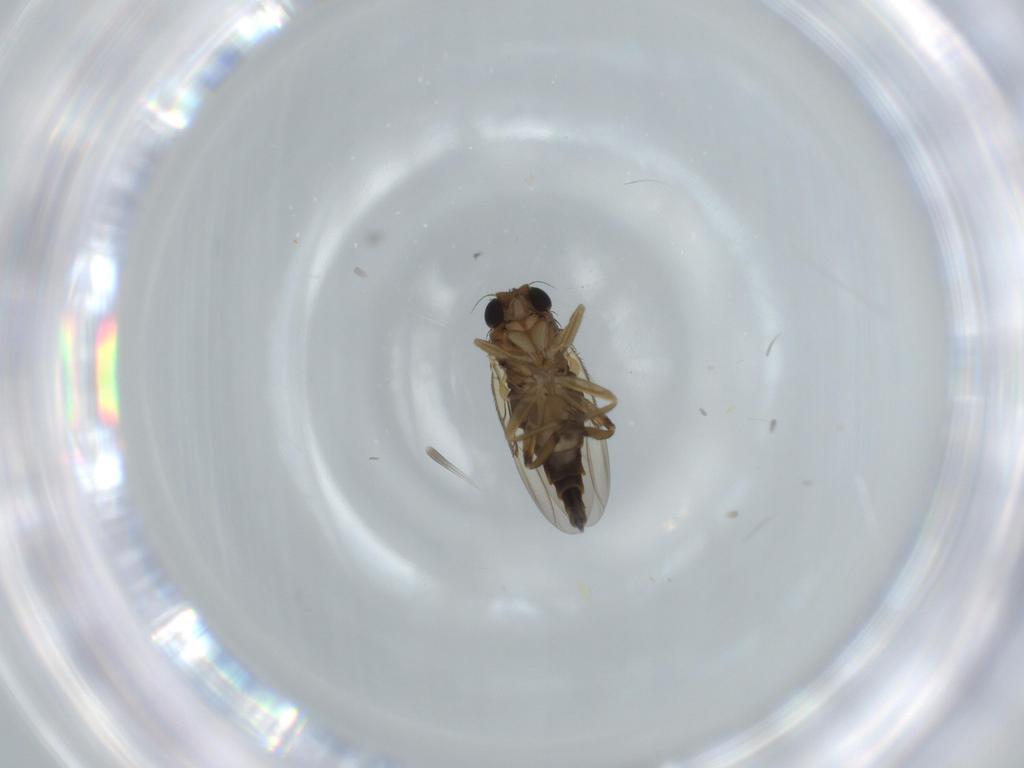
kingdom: Animalia
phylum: Arthropoda
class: Insecta
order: Diptera
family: Phoridae
